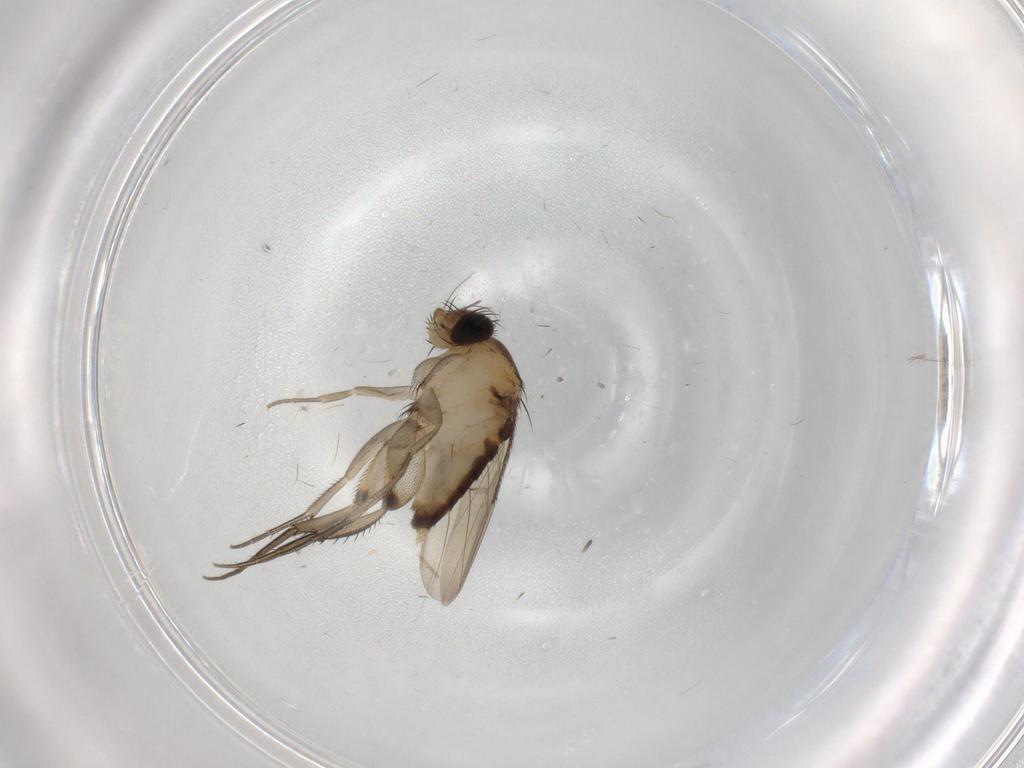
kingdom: Animalia
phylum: Arthropoda
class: Insecta
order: Diptera
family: Phoridae
